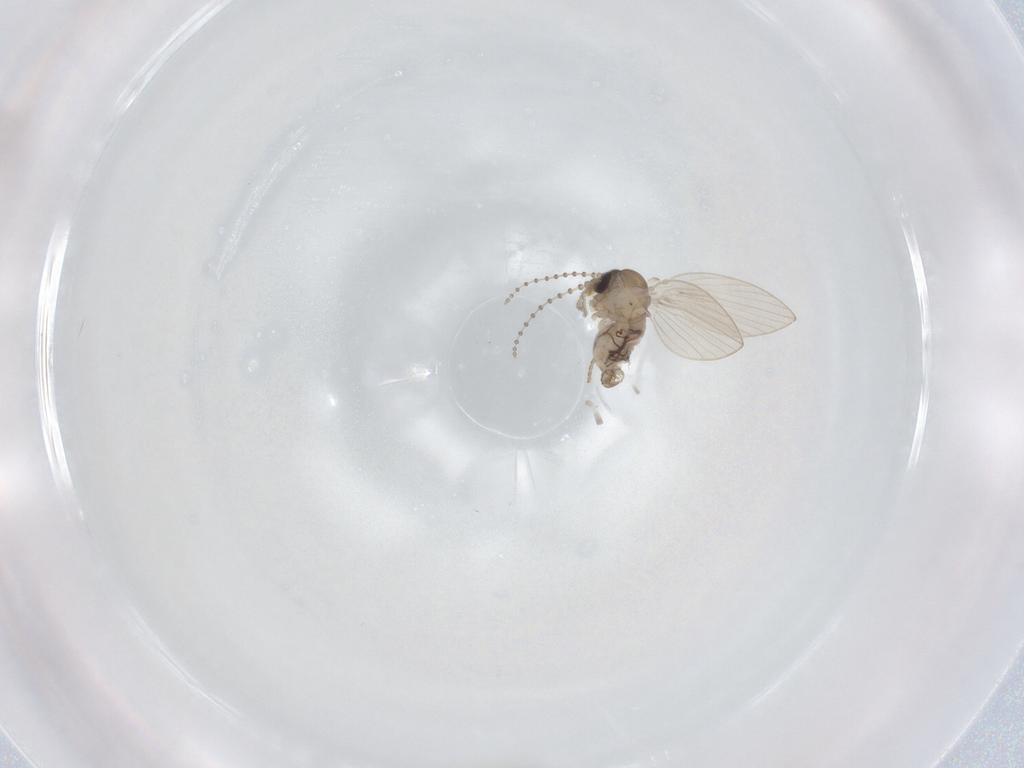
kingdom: Animalia
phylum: Arthropoda
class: Insecta
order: Diptera
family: Cecidomyiidae
